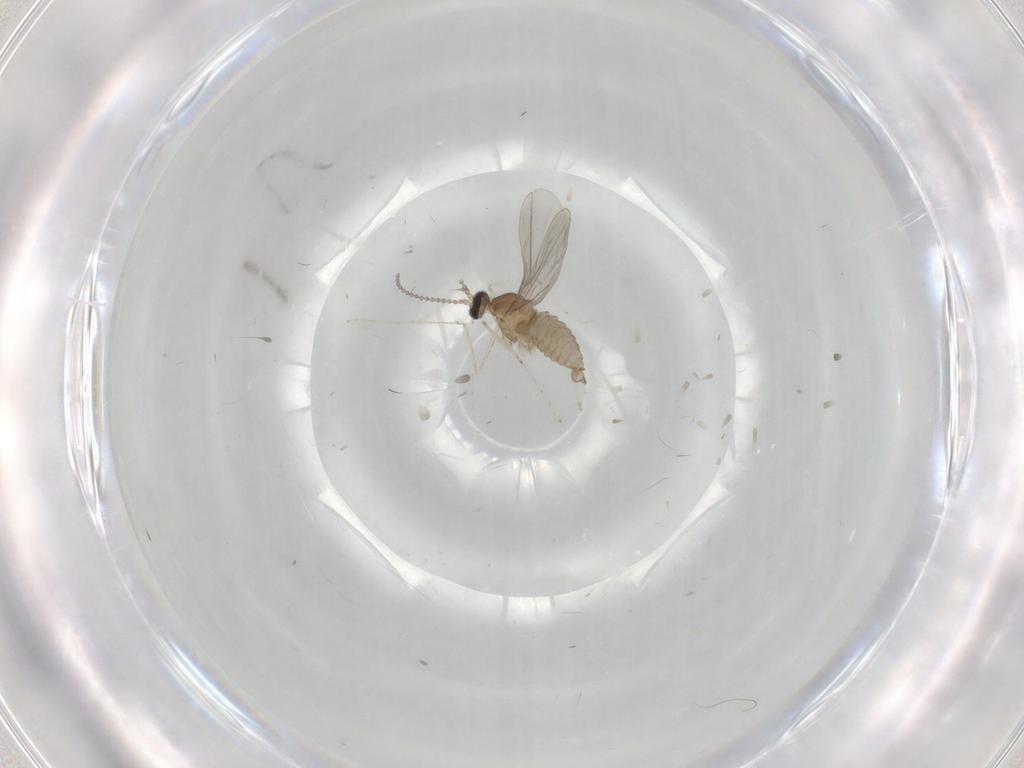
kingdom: Animalia
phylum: Arthropoda
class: Insecta
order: Diptera
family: Cecidomyiidae
